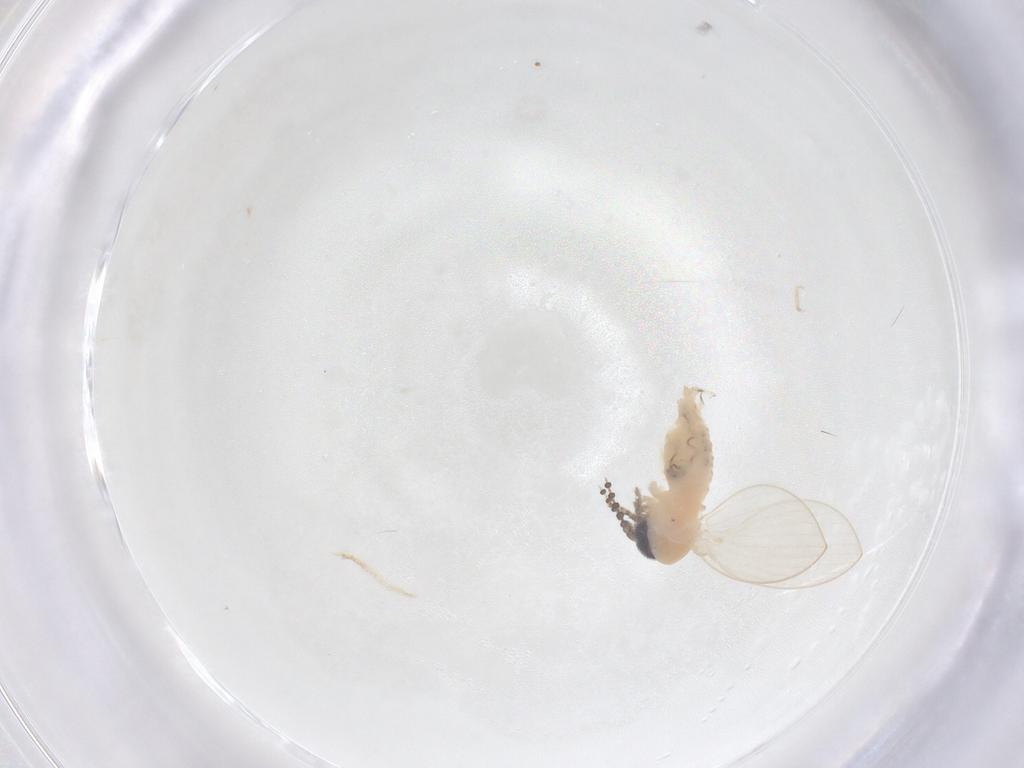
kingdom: Animalia
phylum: Arthropoda
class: Insecta
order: Diptera
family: Psychodidae
